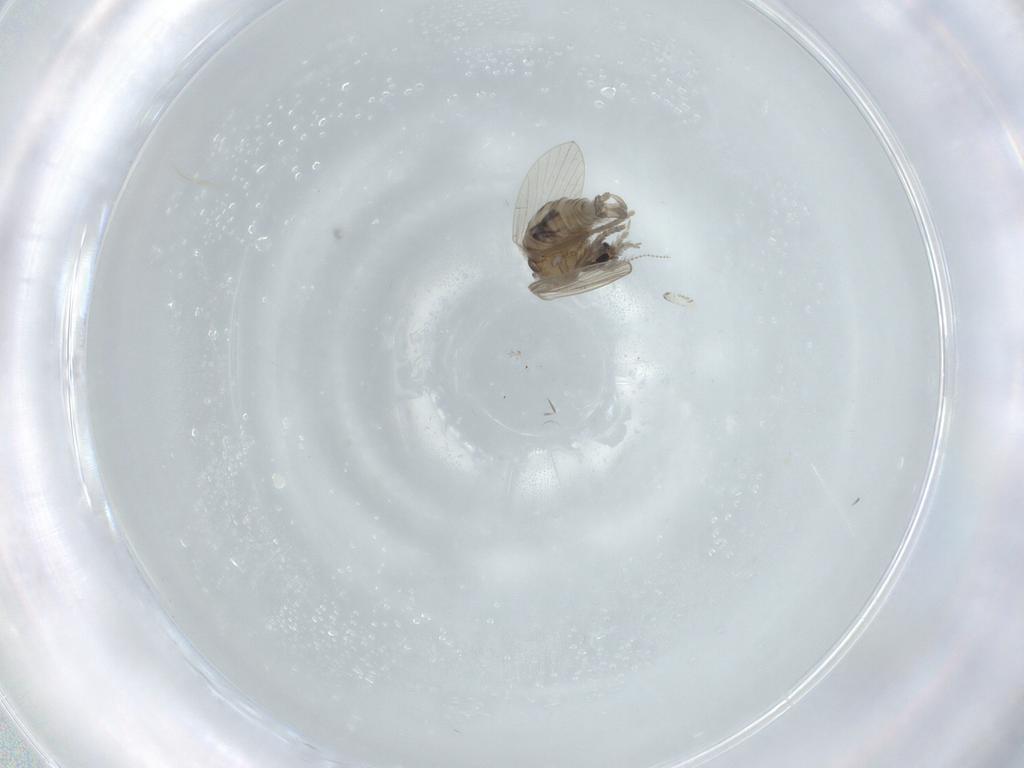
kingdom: Animalia
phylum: Arthropoda
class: Insecta
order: Diptera
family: Psychodidae
